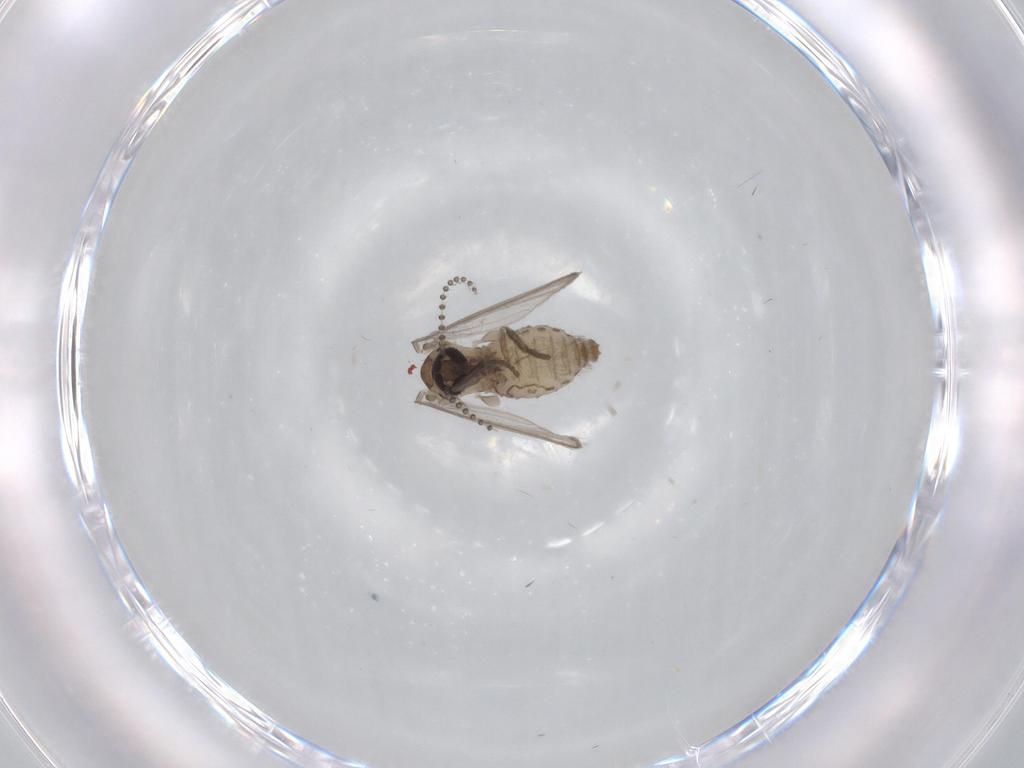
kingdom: Animalia
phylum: Arthropoda
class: Insecta
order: Diptera
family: Psychodidae
